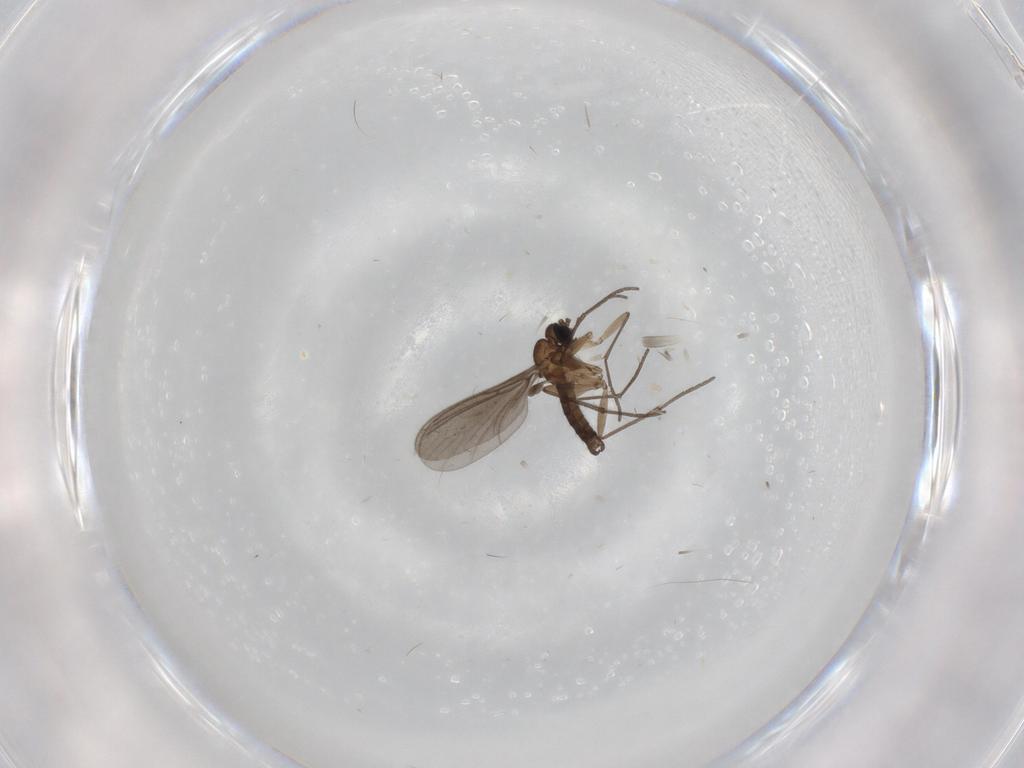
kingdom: Animalia
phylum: Arthropoda
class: Insecta
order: Diptera
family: Sciaridae
